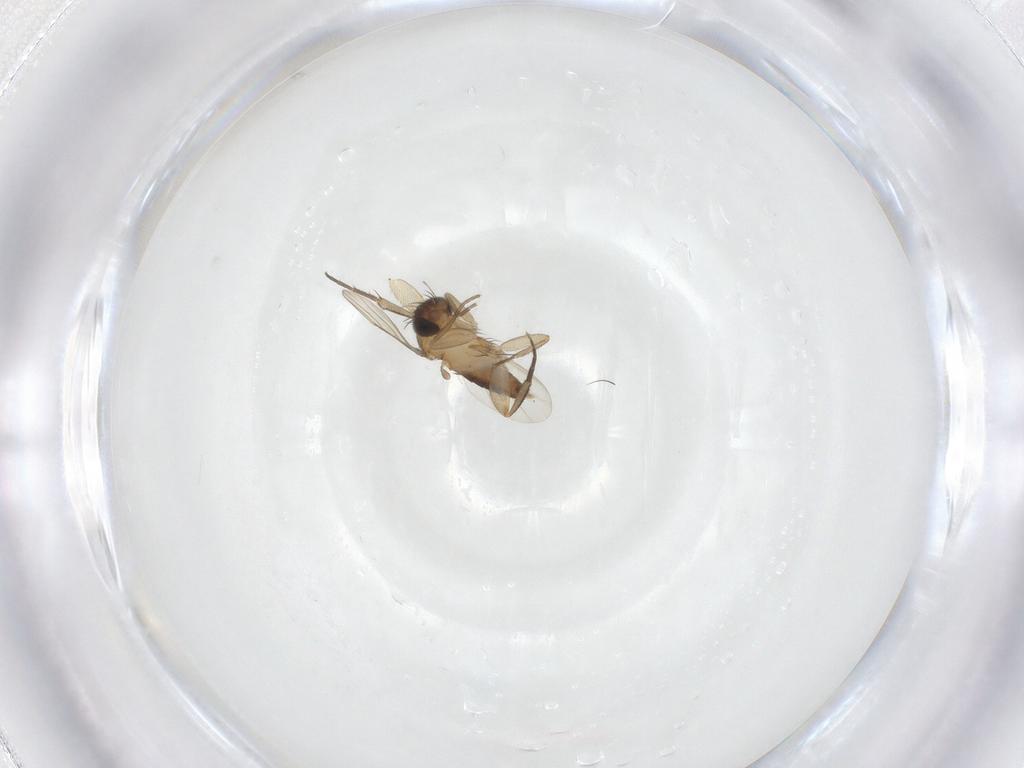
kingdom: Animalia
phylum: Arthropoda
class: Insecta
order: Diptera
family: Phoridae
